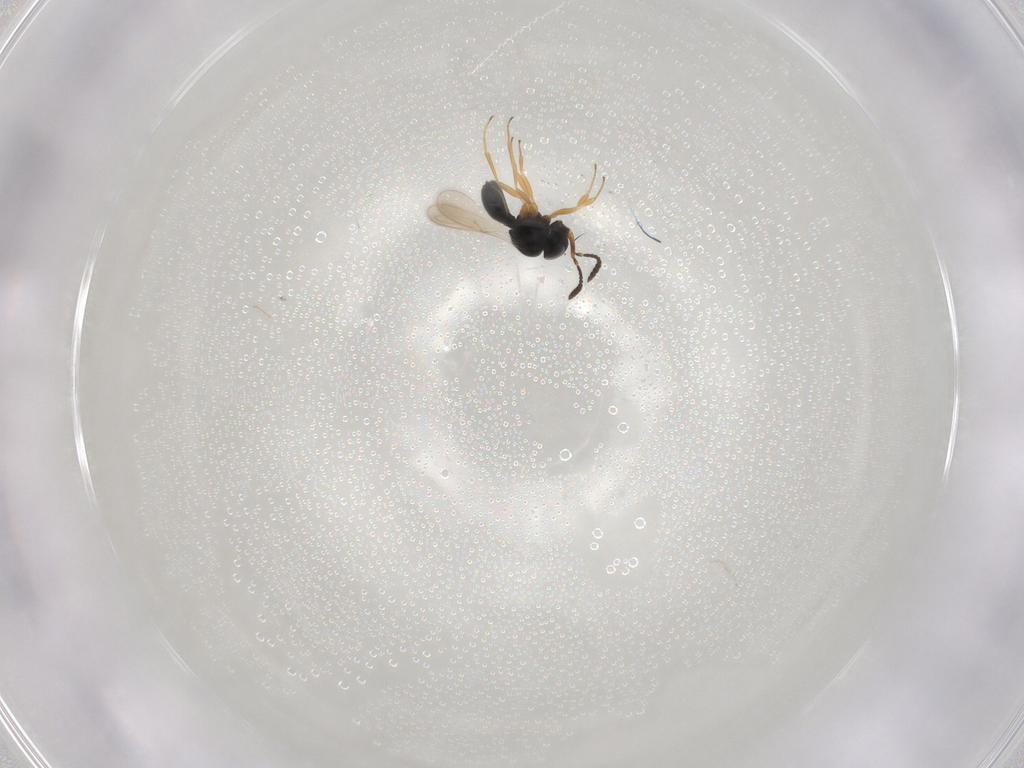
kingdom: Animalia
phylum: Arthropoda
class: Insecta
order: Hymenoptera
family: Scelionidae
